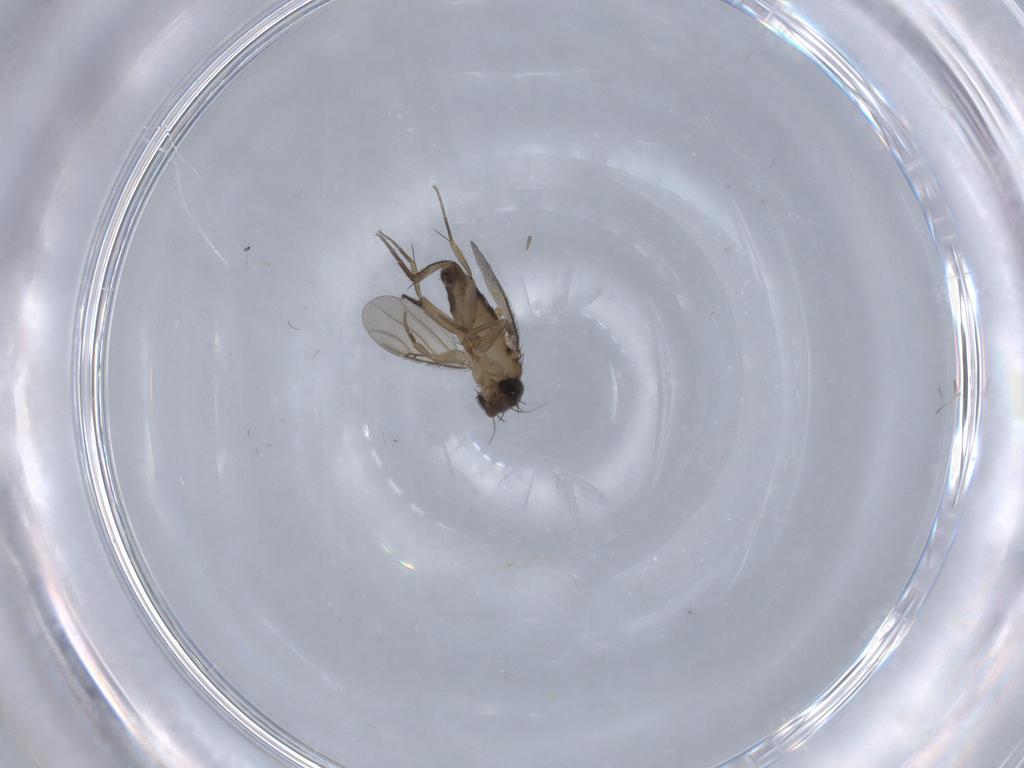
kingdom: Animalia
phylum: Arthropoda
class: Insecta
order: Diptera
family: Phoridae
